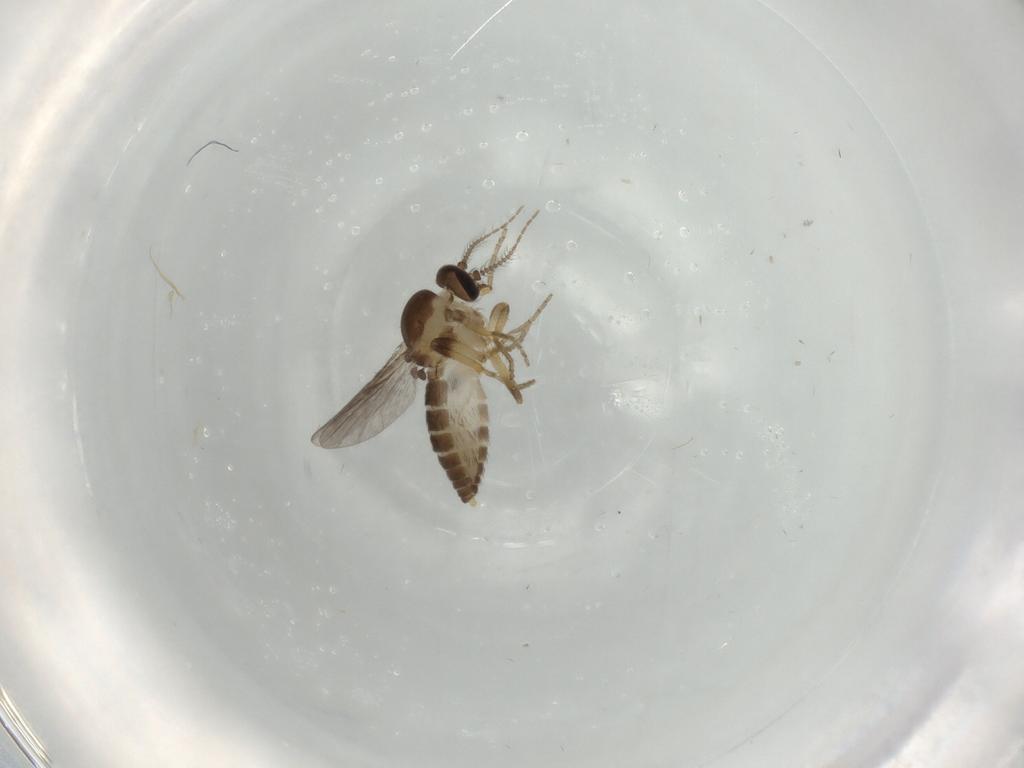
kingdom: Animalia
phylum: Arthropoda
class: Insecta
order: Diptera
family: Ceratopogonidae
